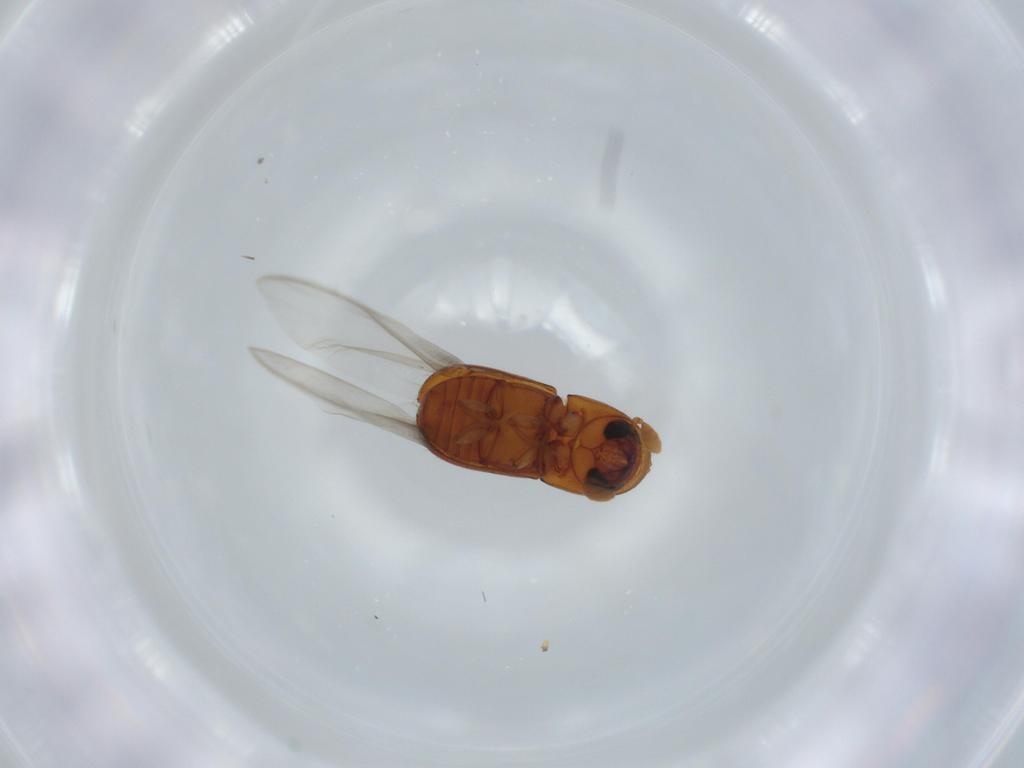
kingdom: Animalia
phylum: Arthropoda
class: Insecta
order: Coleoptera
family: Curculionidae
